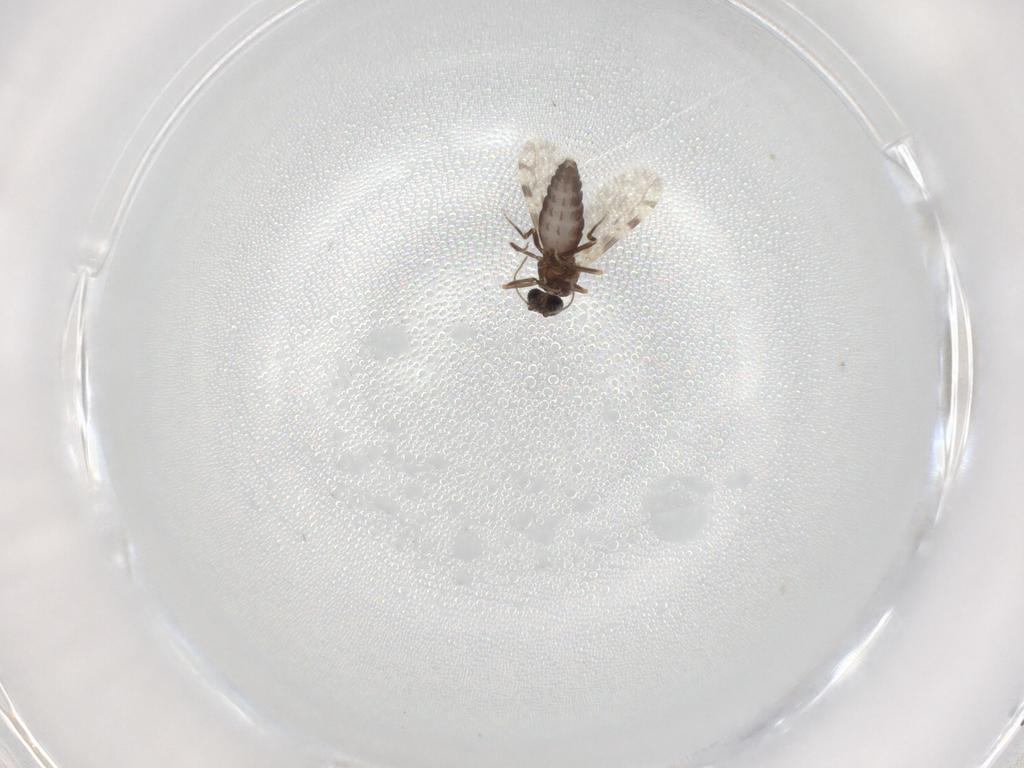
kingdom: Animalia
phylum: Arthropoda
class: Insecta
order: Diptera
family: Ceratopogonidae
